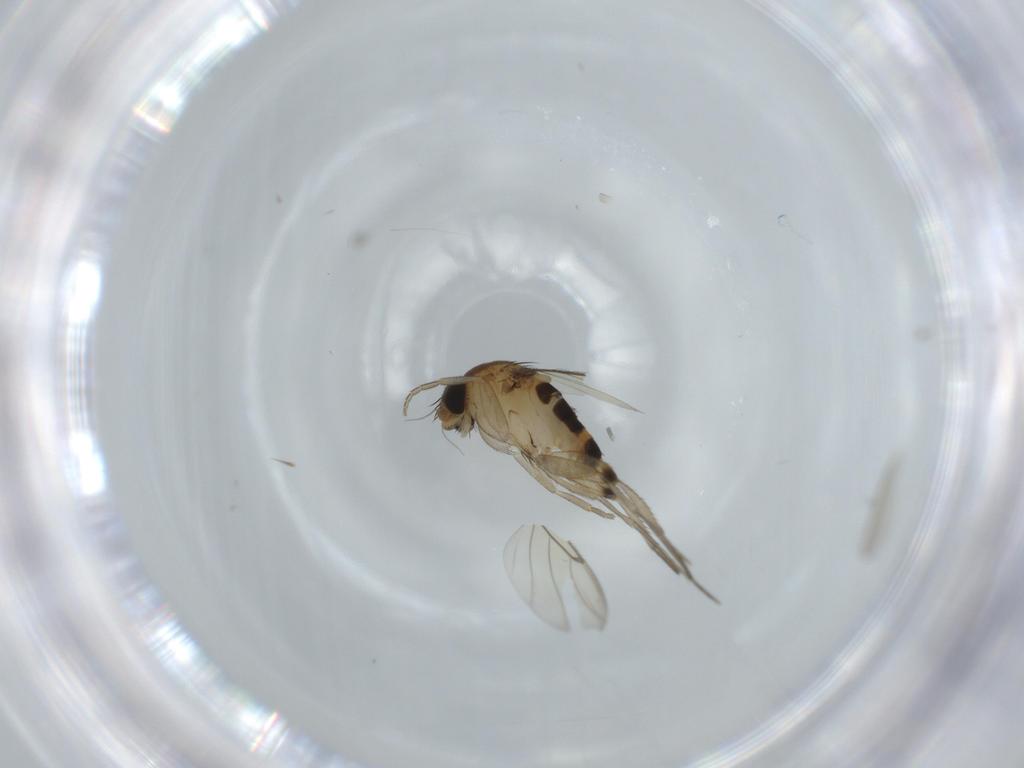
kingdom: Animalia
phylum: Arthropoda
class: Insecta
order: Diptera
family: Phoridae
